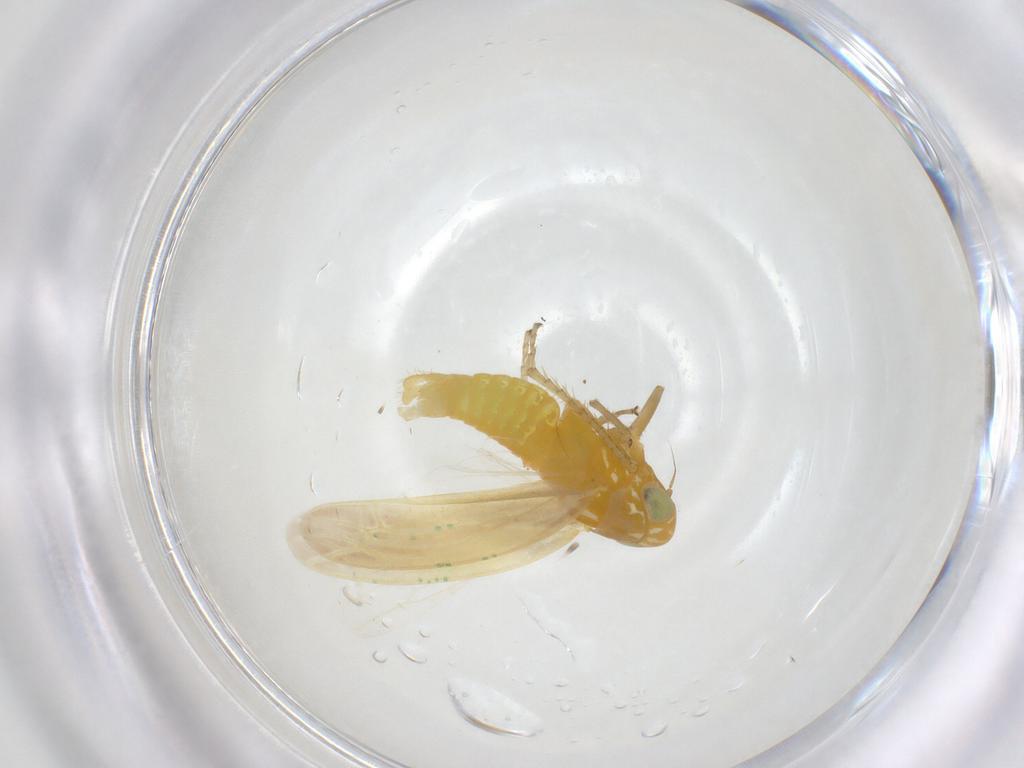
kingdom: Animalia
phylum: Arthropoda
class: Insecta
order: Hemiptera
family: Cicadellidae
